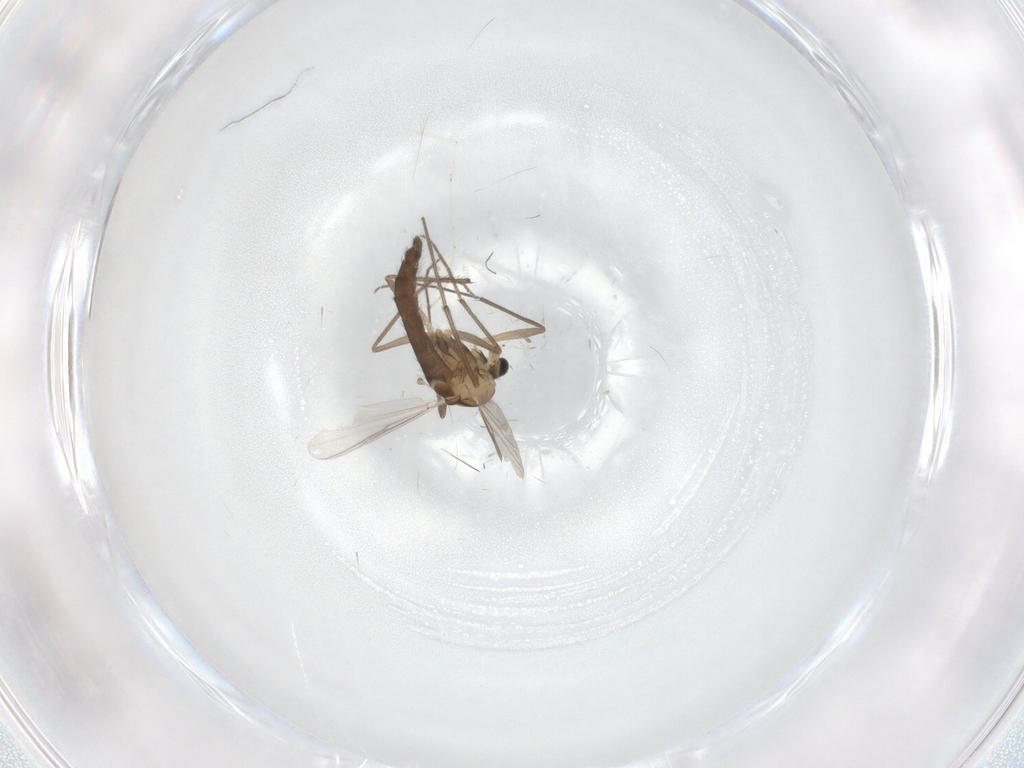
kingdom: Animalia
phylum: Arthropoda
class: Insecta
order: Diptera
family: Chironomidae
